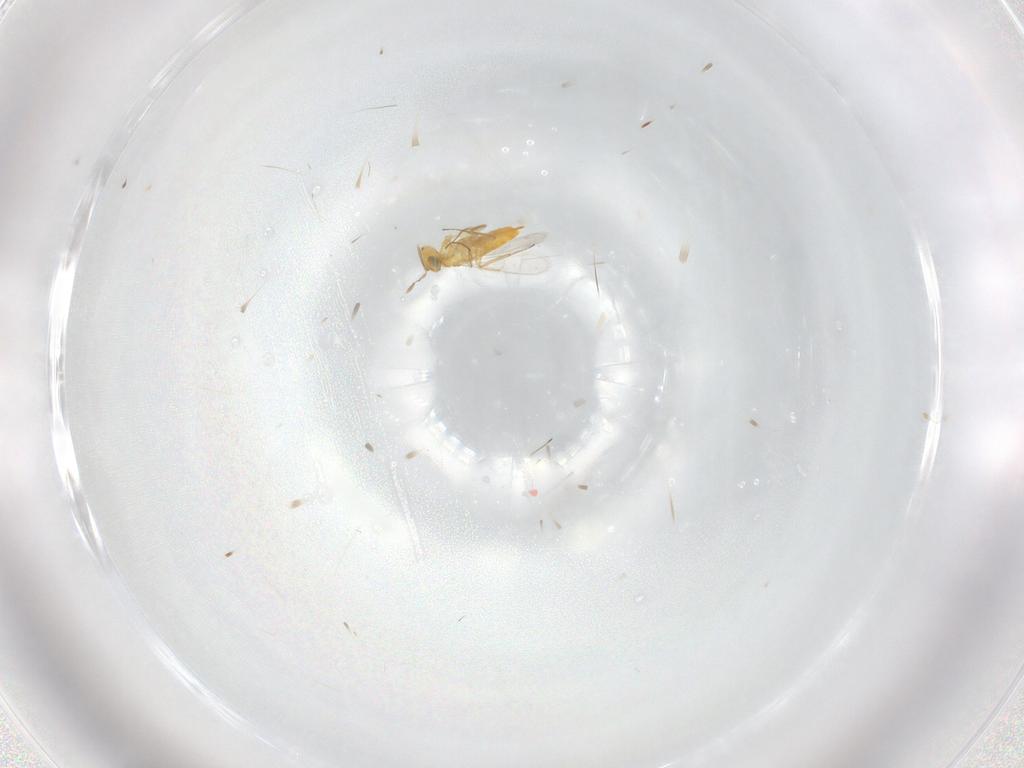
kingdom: Animalia
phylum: Arthropoda
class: Insecta
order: Hymenoptera
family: Aphelinidae
